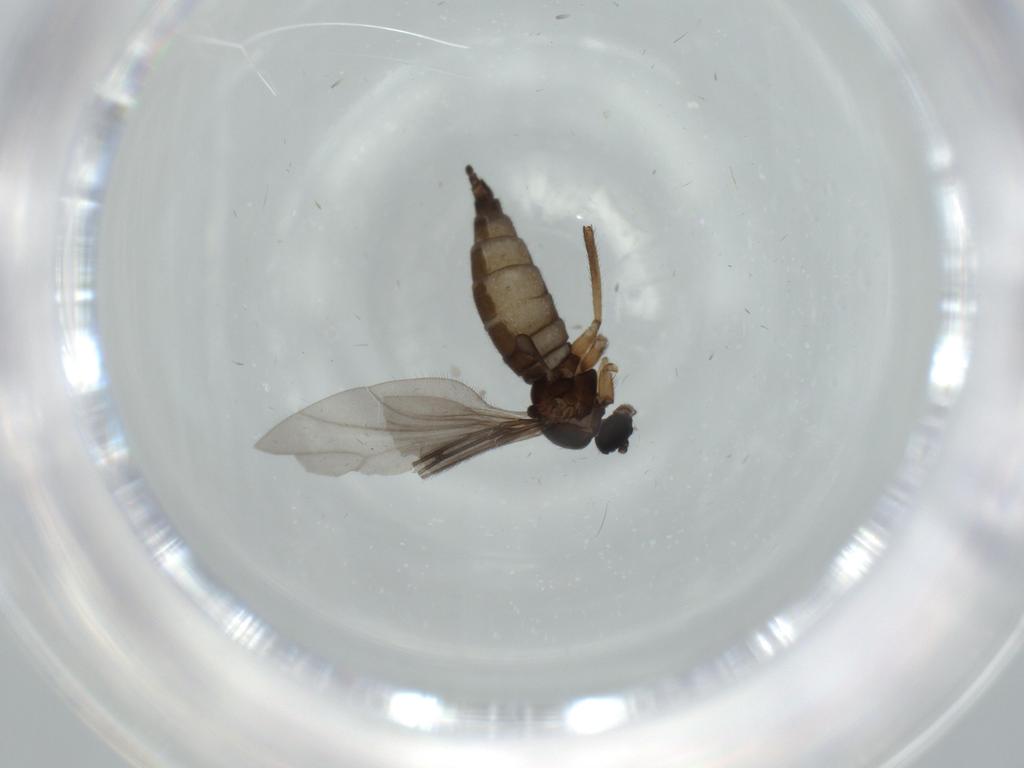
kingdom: Animalia
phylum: Arthropoda
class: Insecta
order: Diptera
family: Sciaridae
